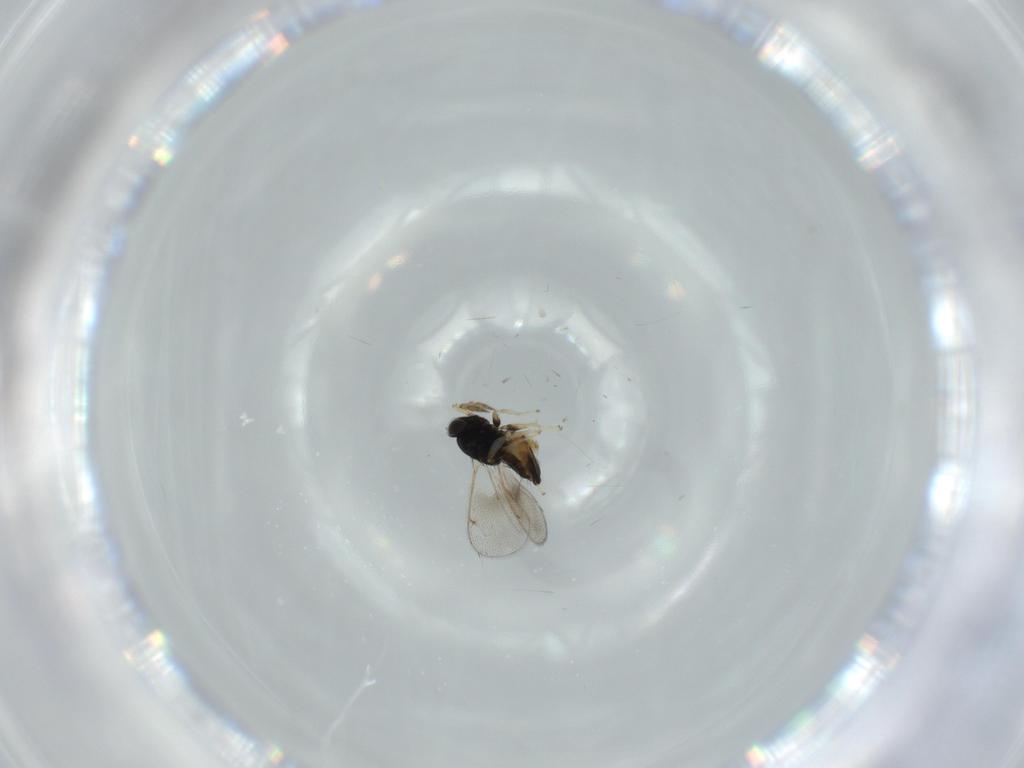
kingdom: Animalia
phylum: Arthropoda
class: Insecta
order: Hymenoptera
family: Eulophidae
